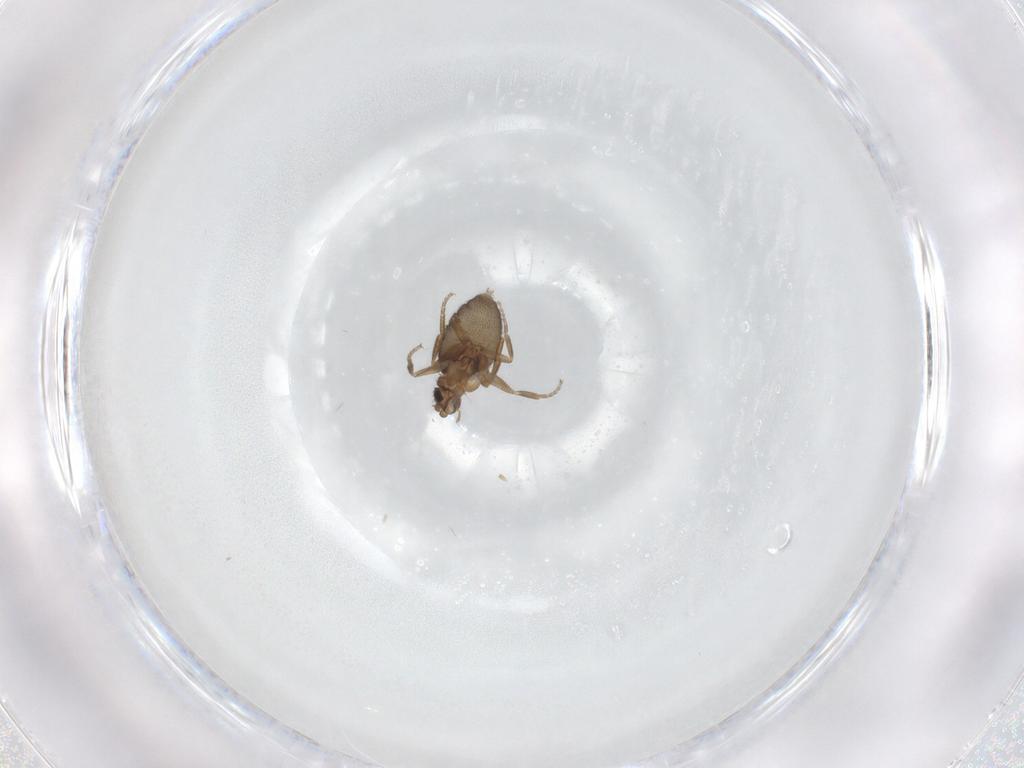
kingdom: Animalia
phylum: Arthropoda
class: Insecta
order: Diptera
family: Phoridae
